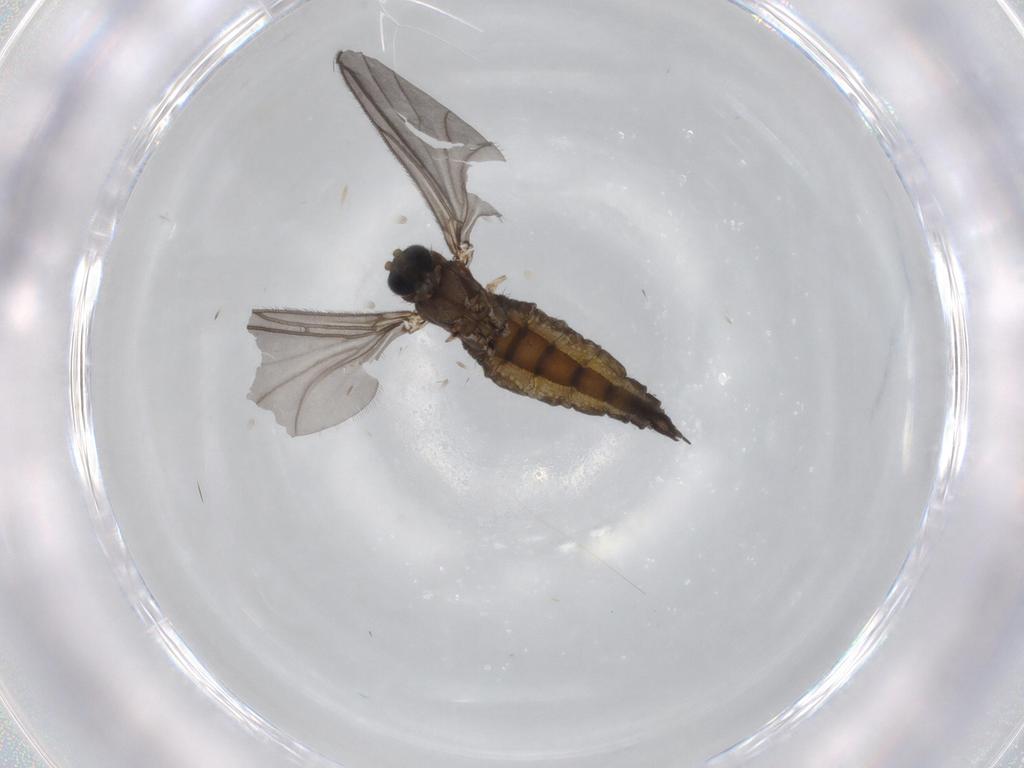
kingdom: Animalia
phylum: Arthropoda
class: Insecta
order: Diptera
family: Sciaridae
